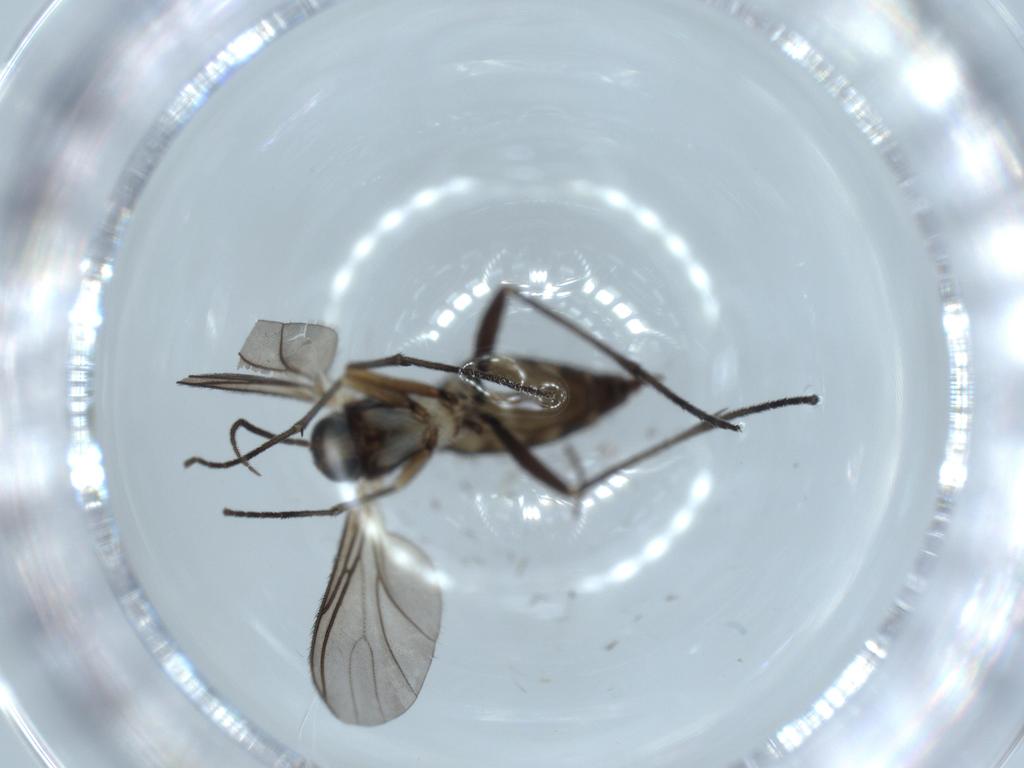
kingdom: Animalia
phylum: Arthropoda
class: Insecta
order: Diptera
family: Sciaridae
